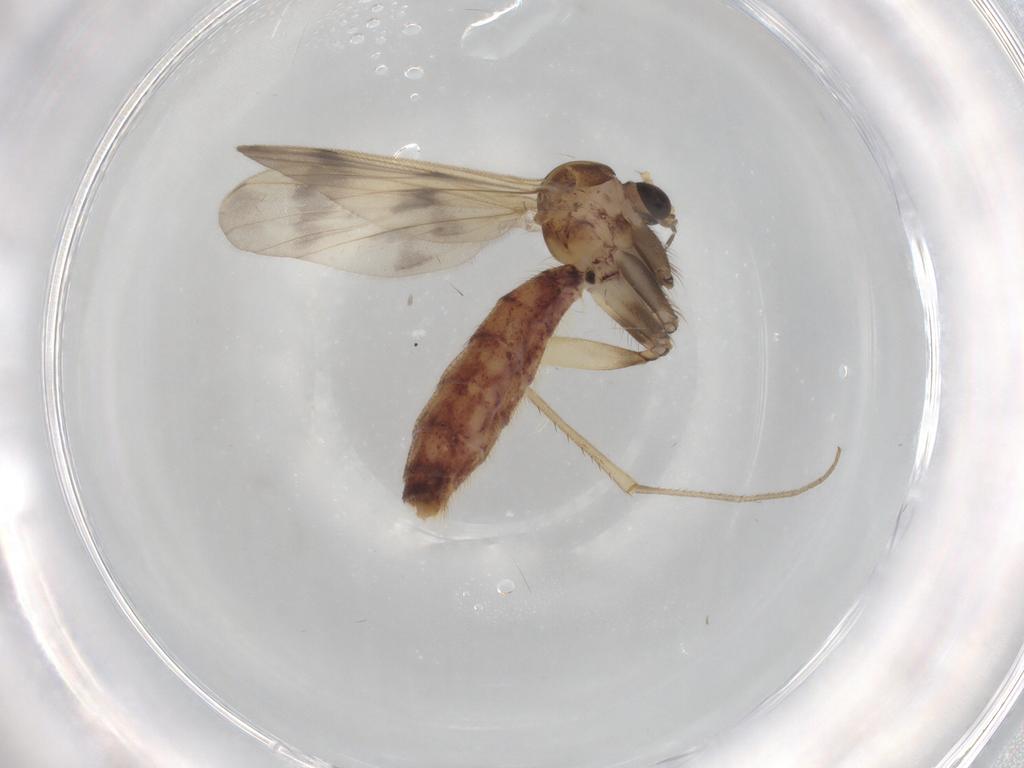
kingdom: Animalia
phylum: Arthropoda
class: Insecta
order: Diptera
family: Mycetophilidae
